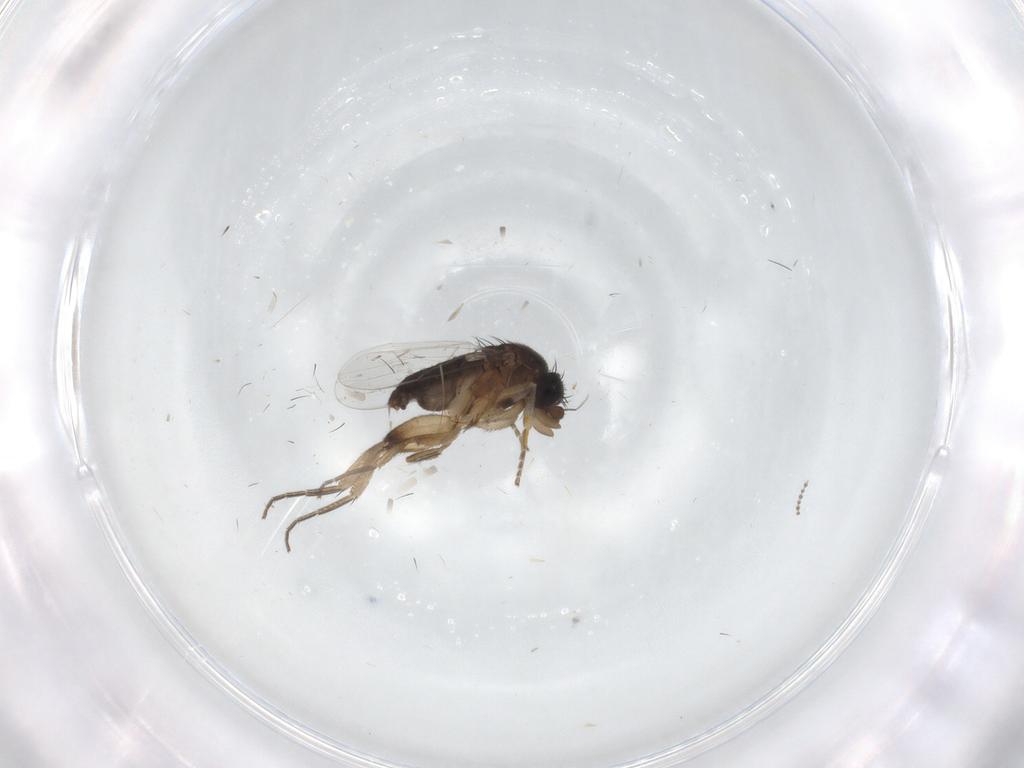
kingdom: Animalia
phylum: Arthropoda
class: Insecta
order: Diptera
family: Phoridae
